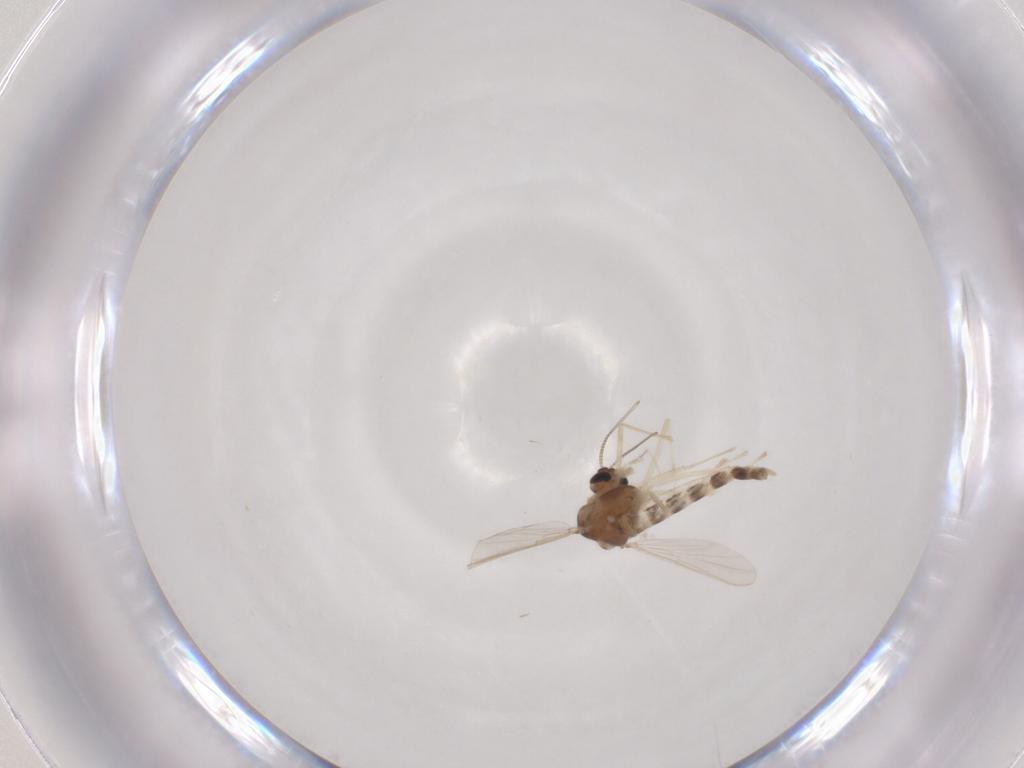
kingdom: Animalia
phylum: Arthropoda
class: Insecta
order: Diptera
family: Chironomidae
